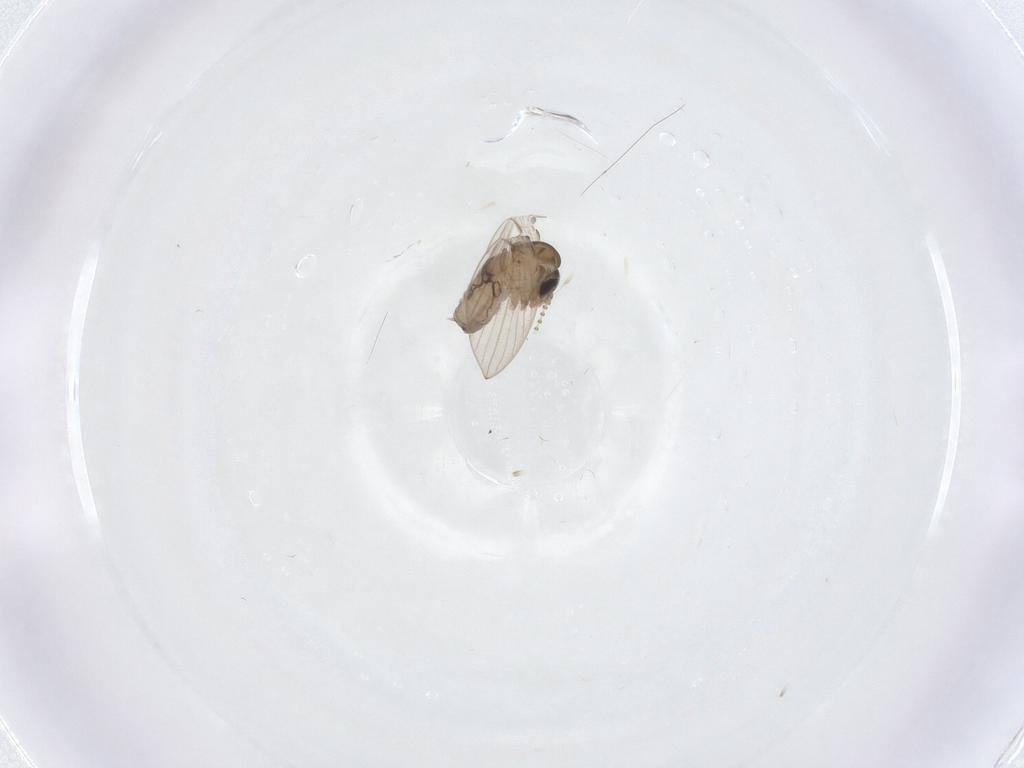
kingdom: Animalia
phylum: Arthropoda
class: Insecta
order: Diptera
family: Psychodidae
